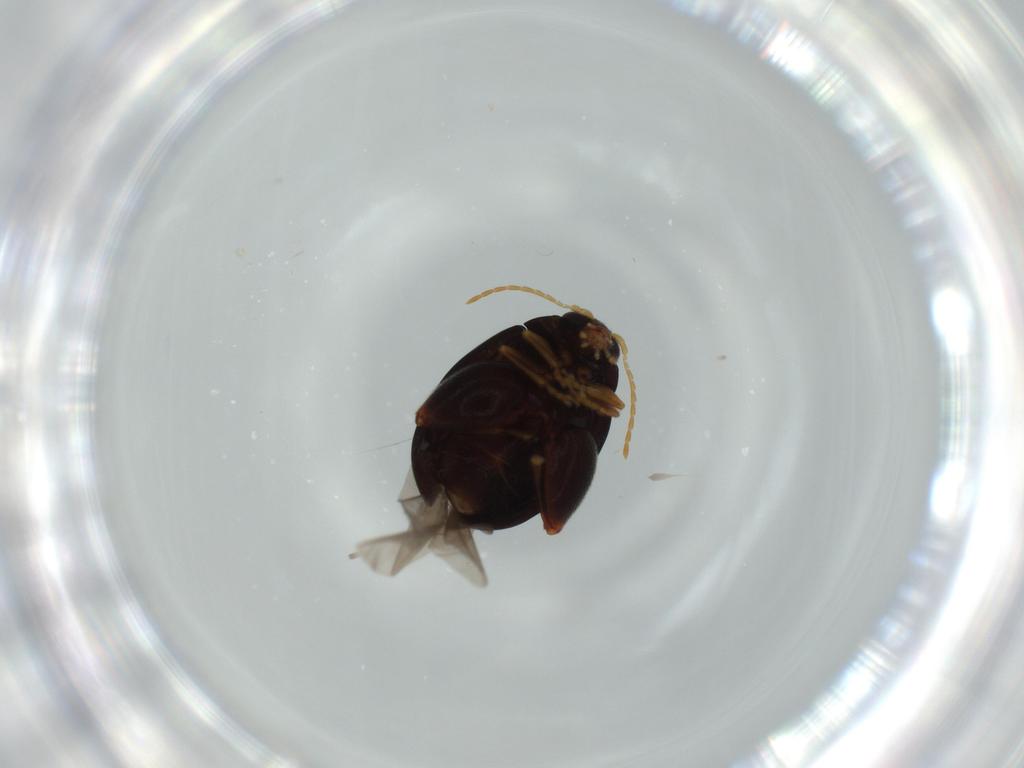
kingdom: Animalia
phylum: Arthropoda
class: Insecta
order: Coleoptera
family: Chrysomelidae
